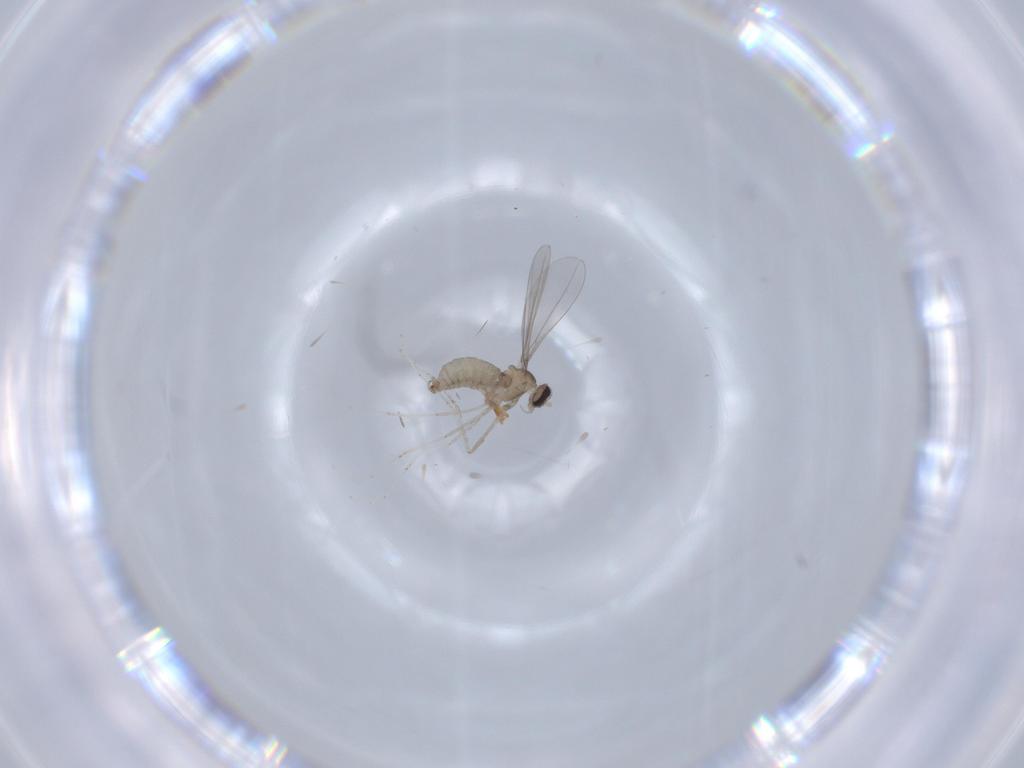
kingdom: Animalia
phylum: Arthropoda
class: Insecta
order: Diptera
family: Cecidomyiidae
